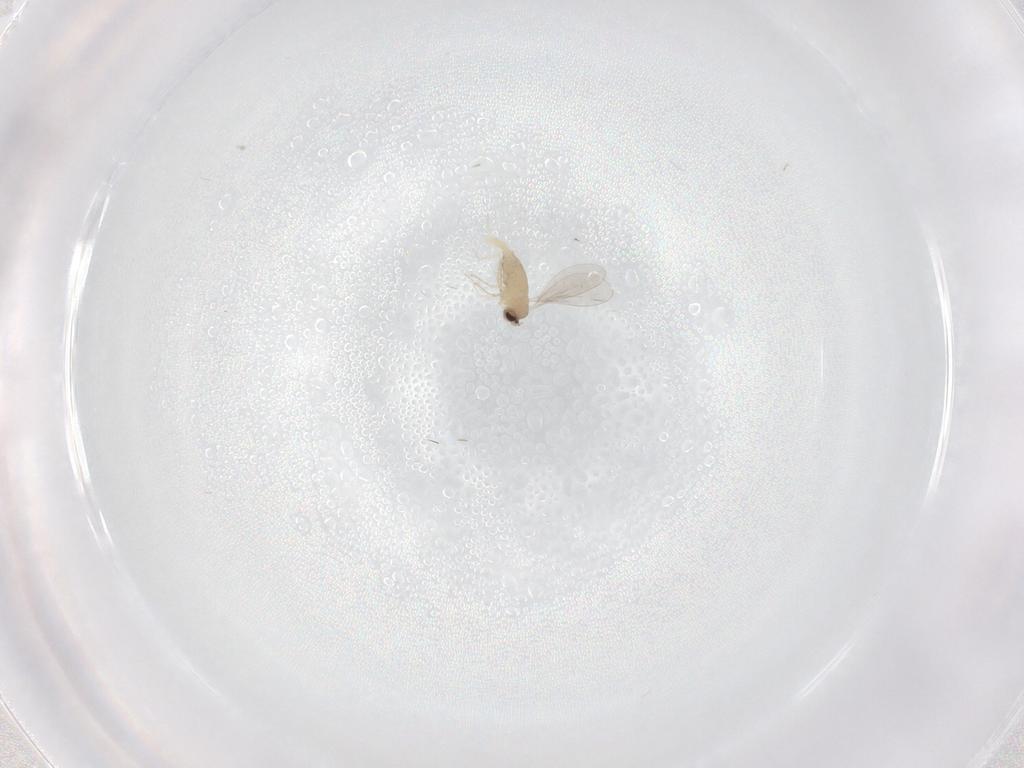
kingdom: Animalia
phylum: Arthropoda
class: Insecta
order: Diptera
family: Cecidomyiidae
